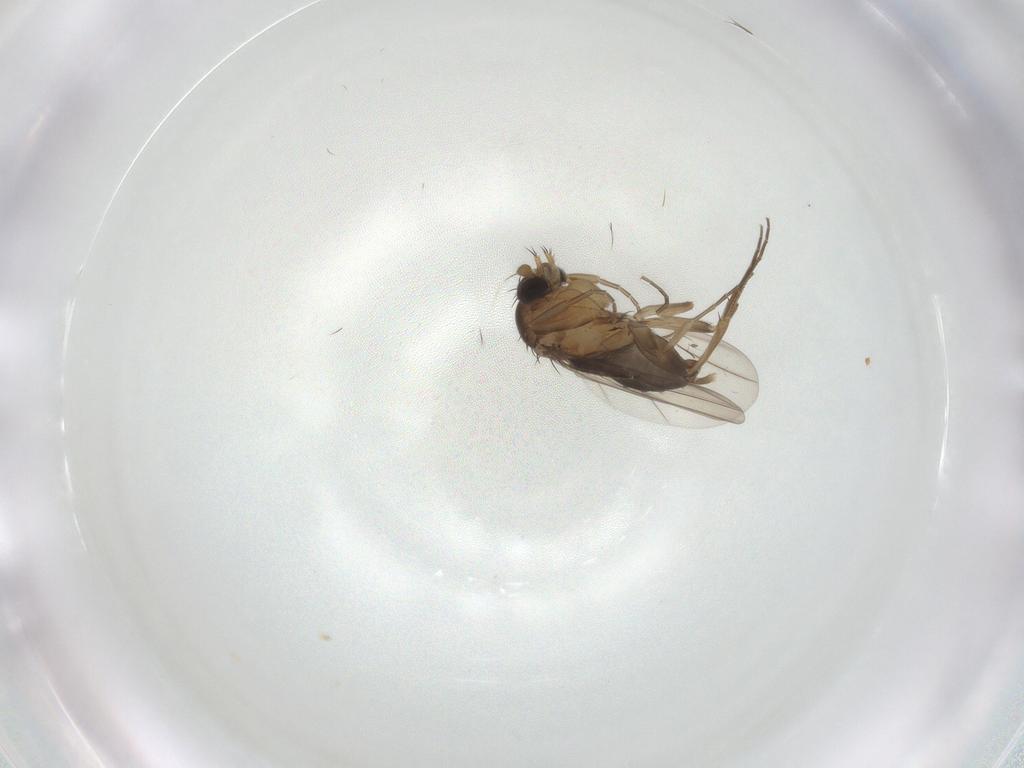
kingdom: Animalia
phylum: Arthropoda
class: Insecta
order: Diptera
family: Phoridae
